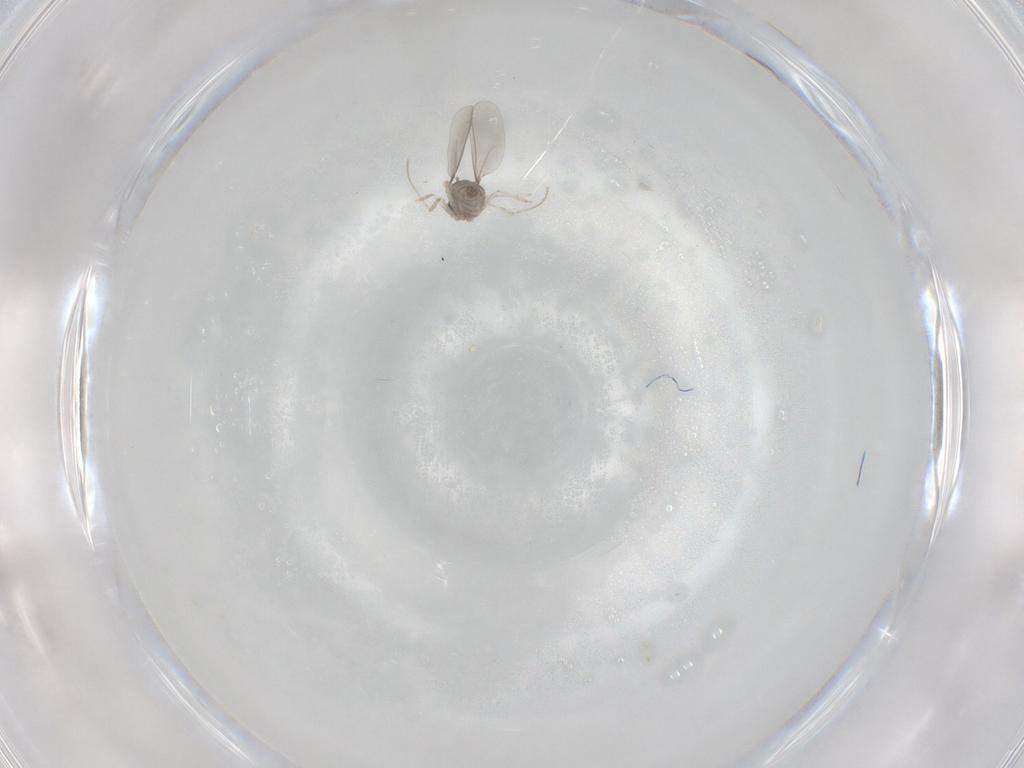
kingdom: Animalia
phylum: Arthropoda
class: Insecta
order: Diptera
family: Cecidomyiidae
